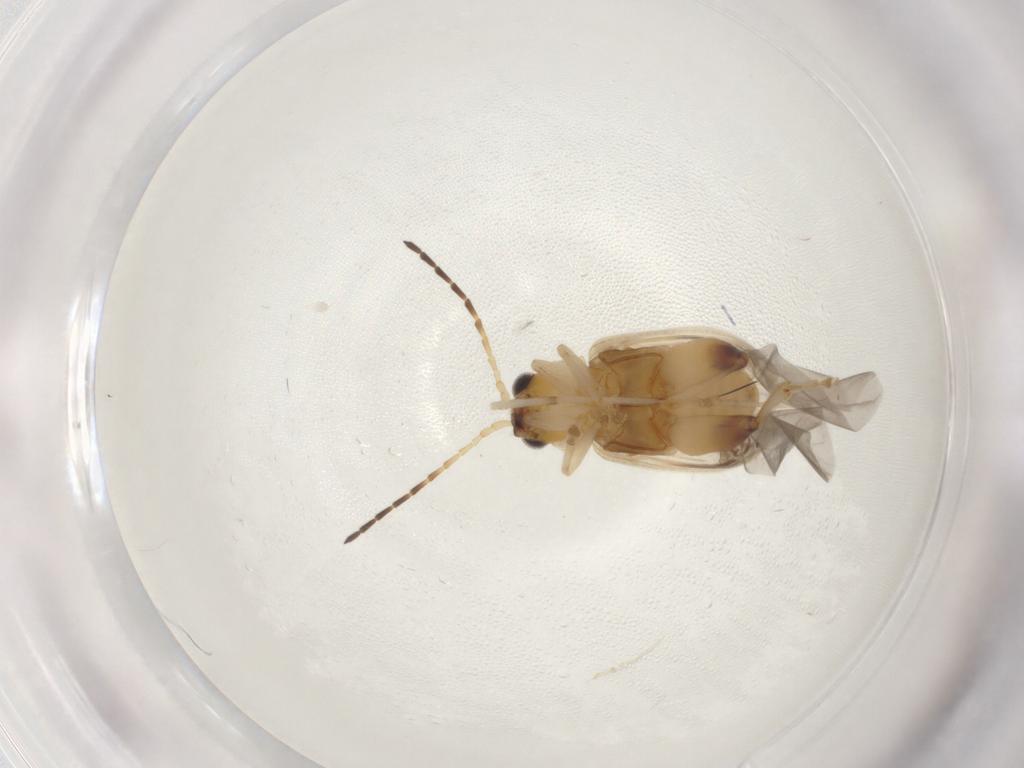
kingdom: Animalia
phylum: Arthropoda
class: Insecta
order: Coleoptera
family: Chrysomelidae
